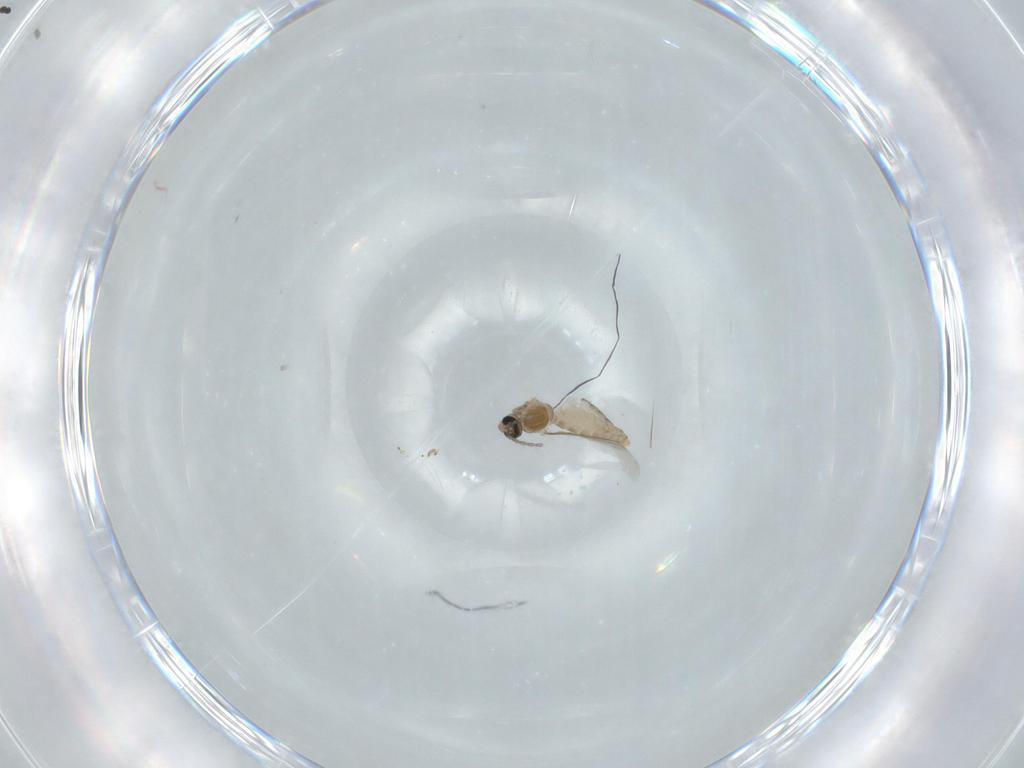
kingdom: Animalia
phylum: Arthropoda
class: Insecta
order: Diptera
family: Cecidomyiidae
